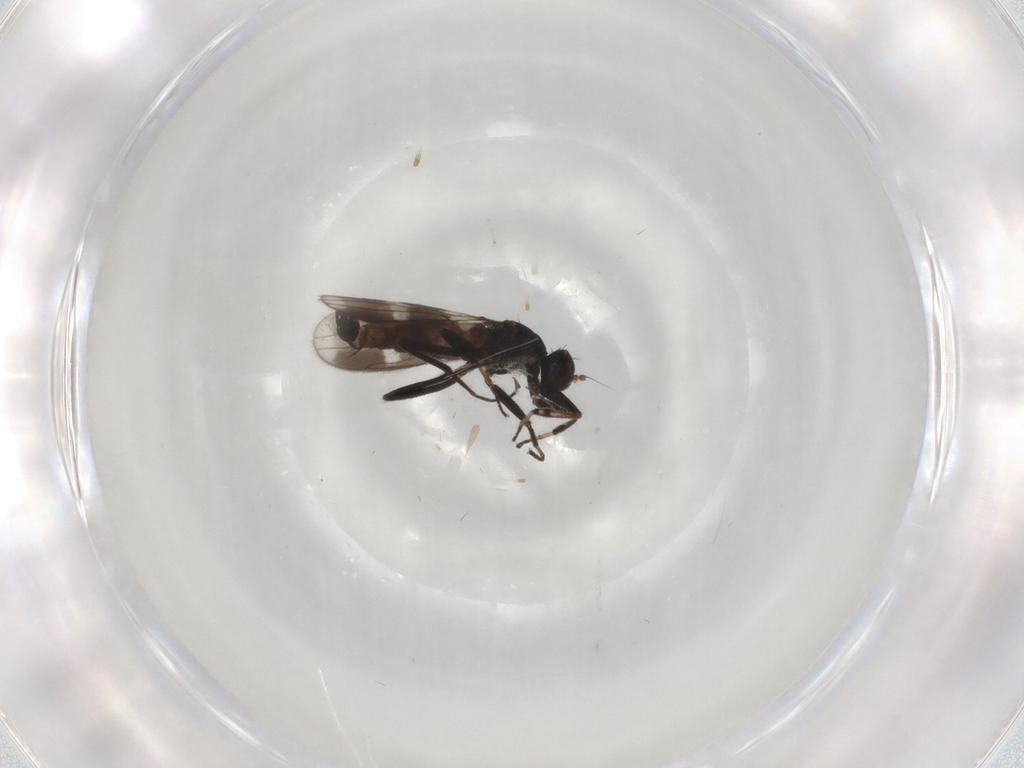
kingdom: Animalia
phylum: Arthropoda
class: Insecta
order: Diptera
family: Hybotidae
